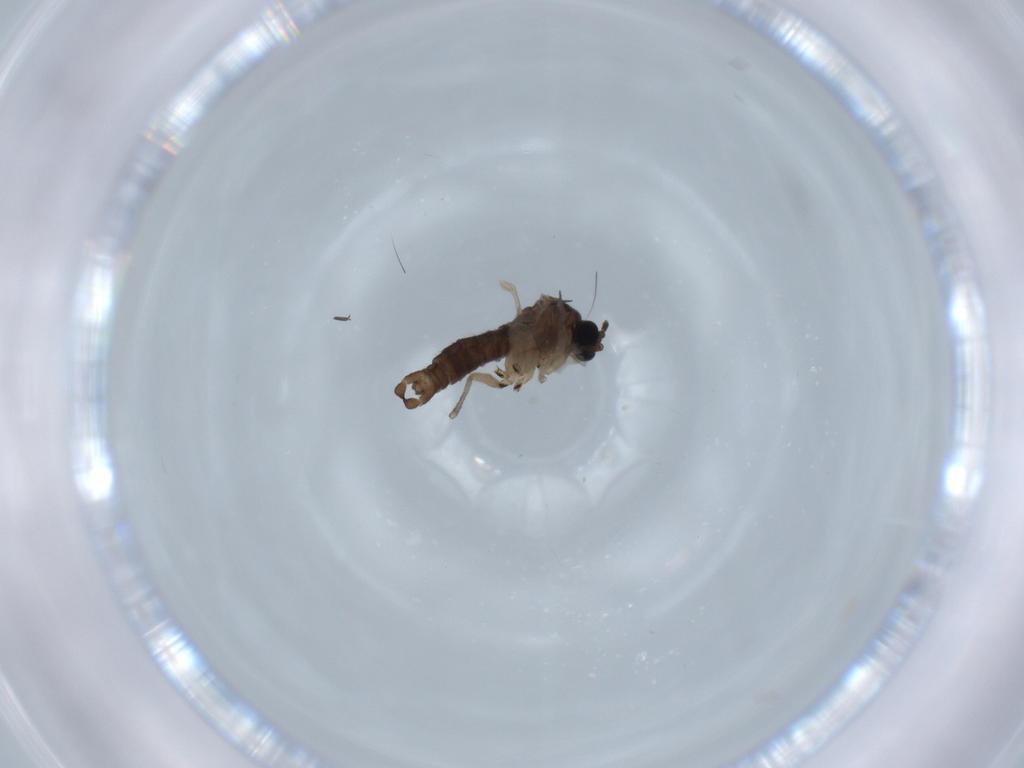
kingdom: Animalia
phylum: Arthropoda
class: Insecta
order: Diptera
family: Sciaridae
